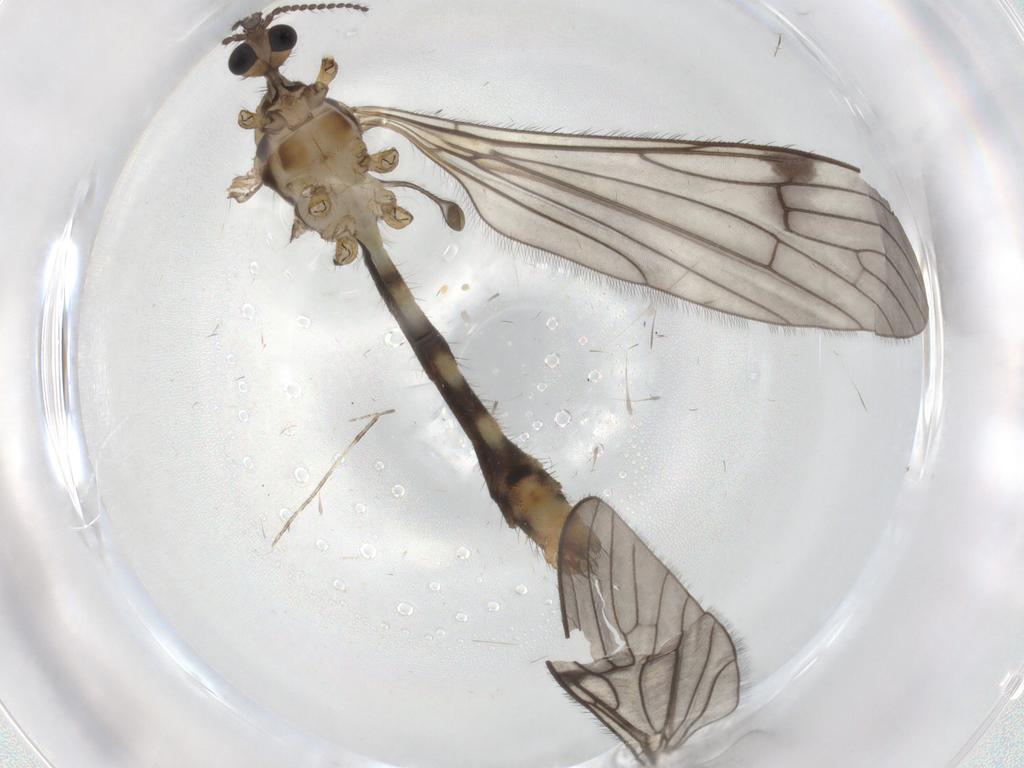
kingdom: Animalia
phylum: Arthropoda
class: Insecta
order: Diptera
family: Limoniidae
